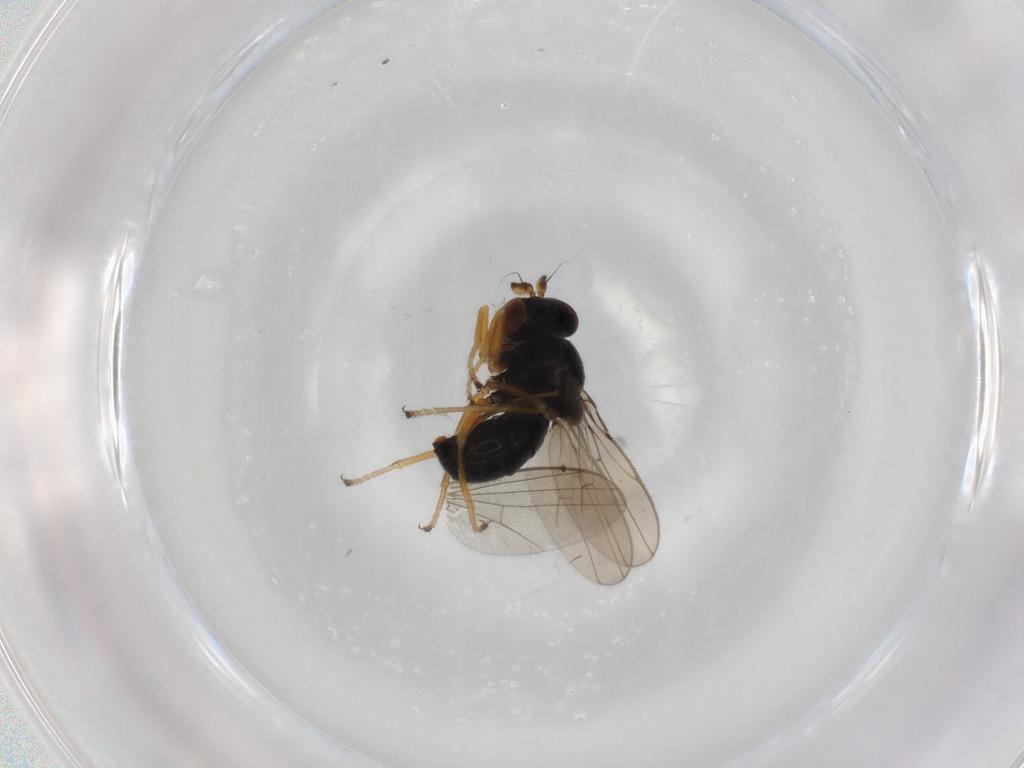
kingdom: Animalia
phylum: Arthropoda
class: Insecta
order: Diptera
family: Ephydridae
